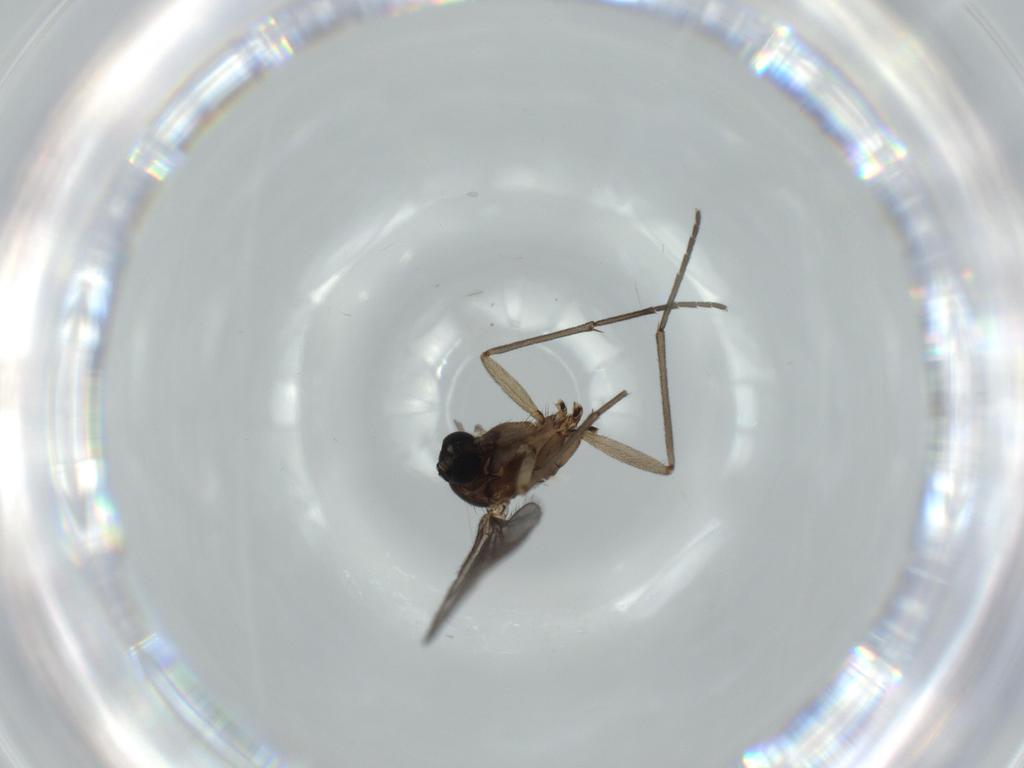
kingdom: Animalia
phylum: Arthropoda
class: Insecta
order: Diptera
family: Sciaridae
